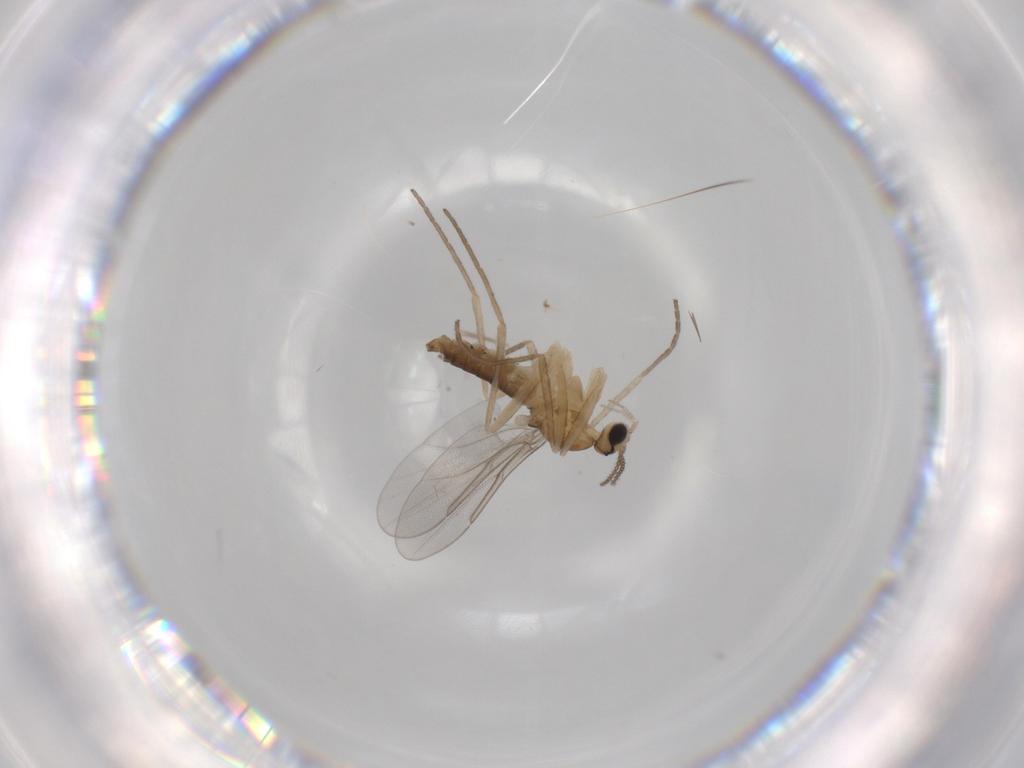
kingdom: Animalia
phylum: Arthropoda
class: Insecta
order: Diptera
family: Cecidomyiidae
